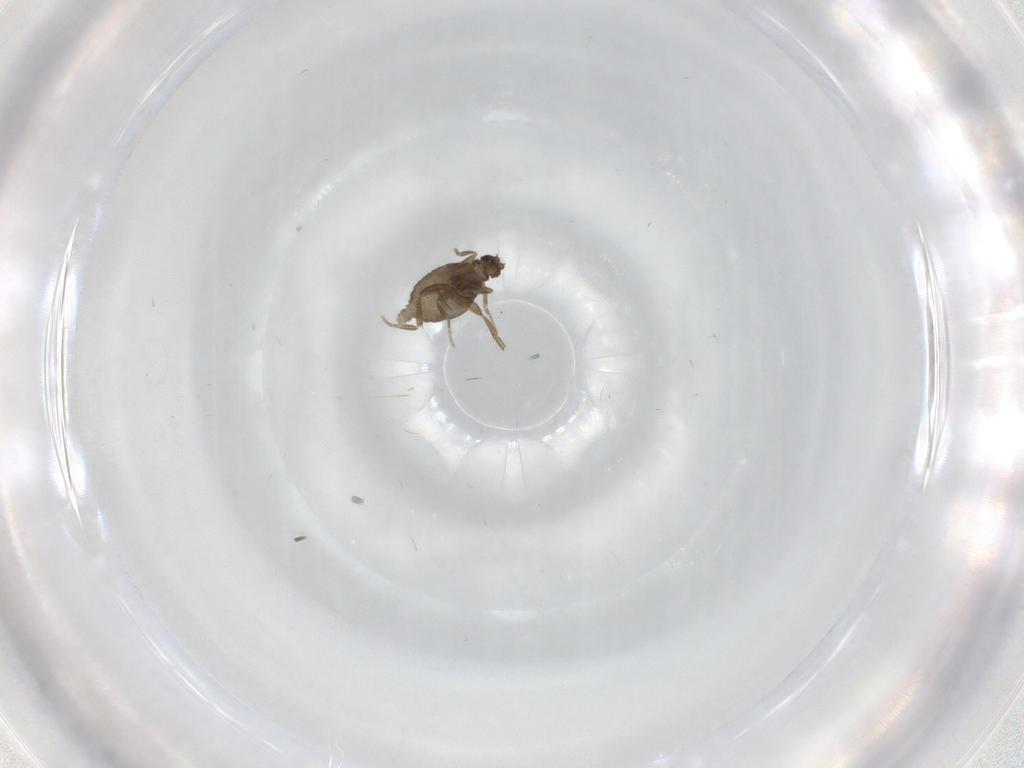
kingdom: Animalia
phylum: Arthropoda
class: Insecta
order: Diptera
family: Phoridae
